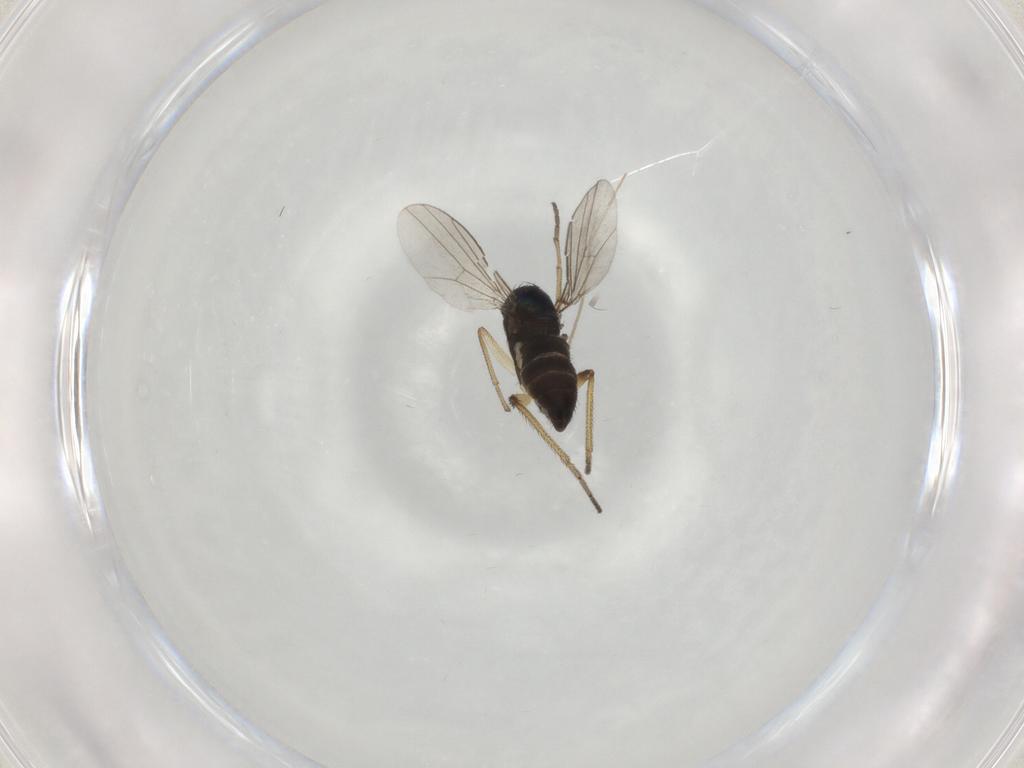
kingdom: Animalia
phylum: Arthropoda
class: Insecta
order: Diptera
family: Dolichopodidae
